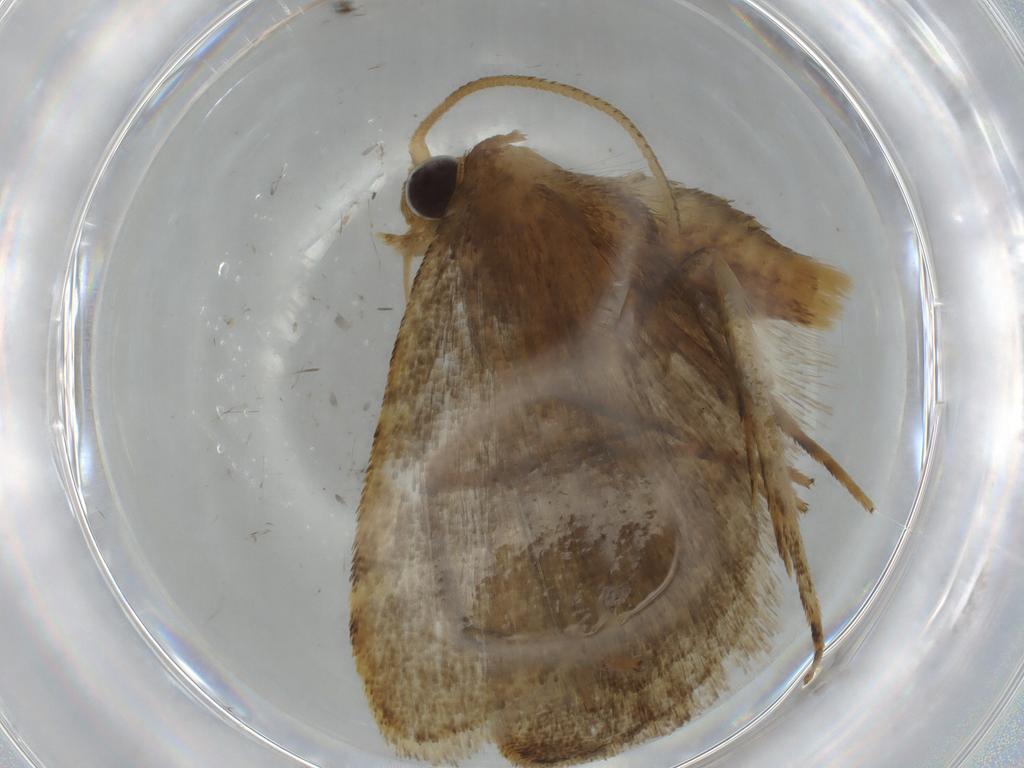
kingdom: Animalia
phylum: Arthropoda
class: Insecta
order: Lepidoptera
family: Gelechiidae
